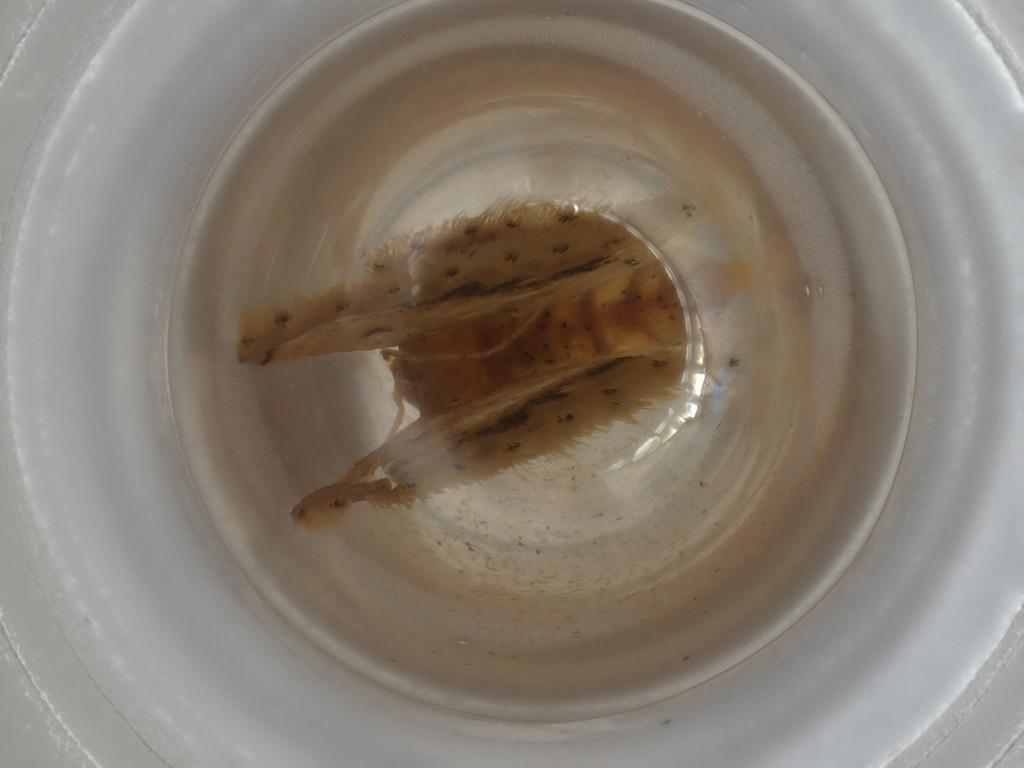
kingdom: Animalia
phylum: Arthropoda
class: Insecta
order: Lepidoptera
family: Geometridae
